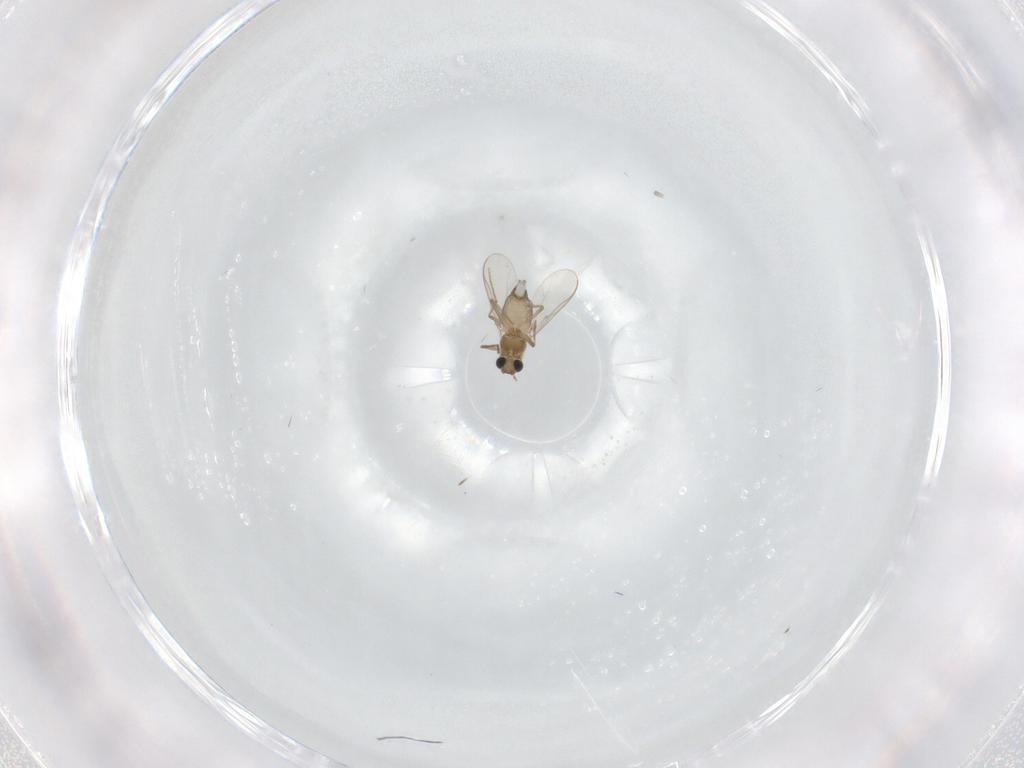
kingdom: Animalia
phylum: Arthropoda
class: Insecta
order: Diptera
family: Chironomidae
